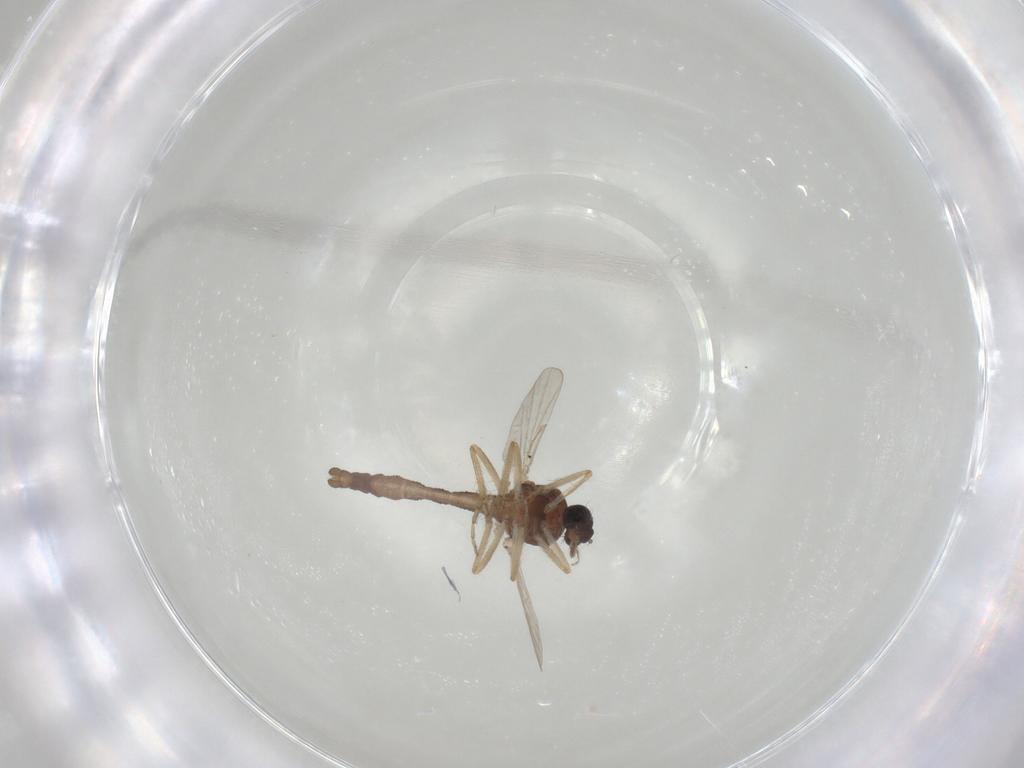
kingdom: Animalia
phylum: Arthropoda
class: Insecta
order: Diptera
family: Ceratopogonidae
